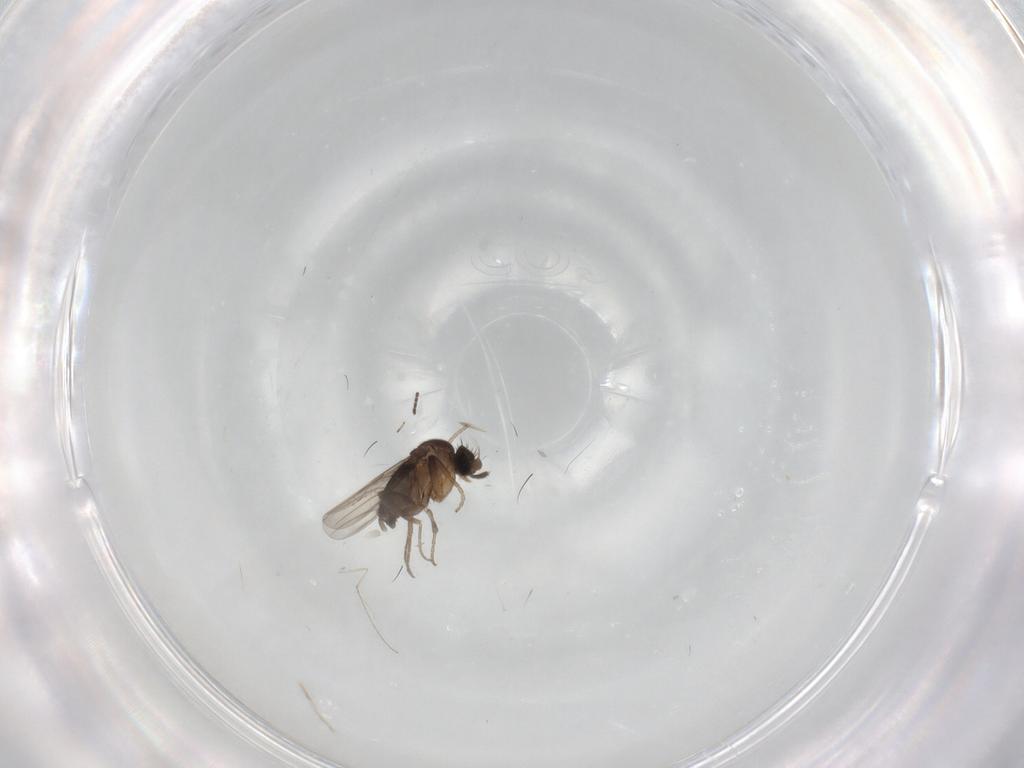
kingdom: Animalia
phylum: Arthropoda
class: Insecta
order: Diptera
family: Phoridae
